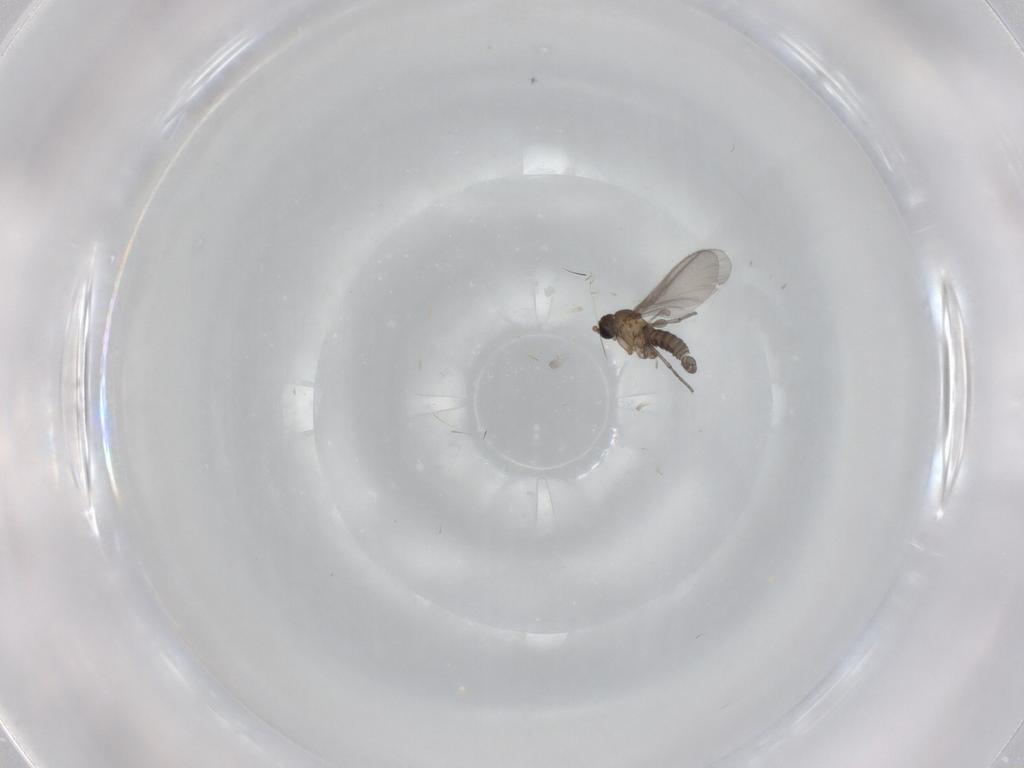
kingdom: Animalia
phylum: Arthropoda
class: Insecta
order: Diptera
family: Sciaridae
